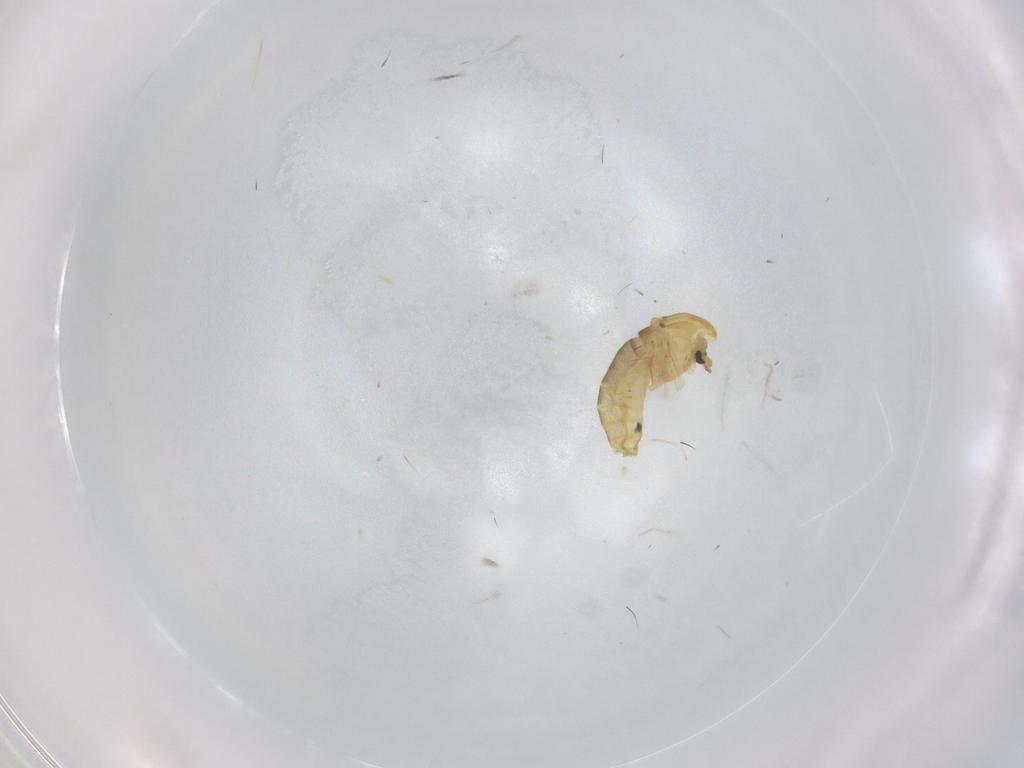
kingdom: Animalia
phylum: Arthropoda
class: Insecta
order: Diptera
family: Chironomidae
